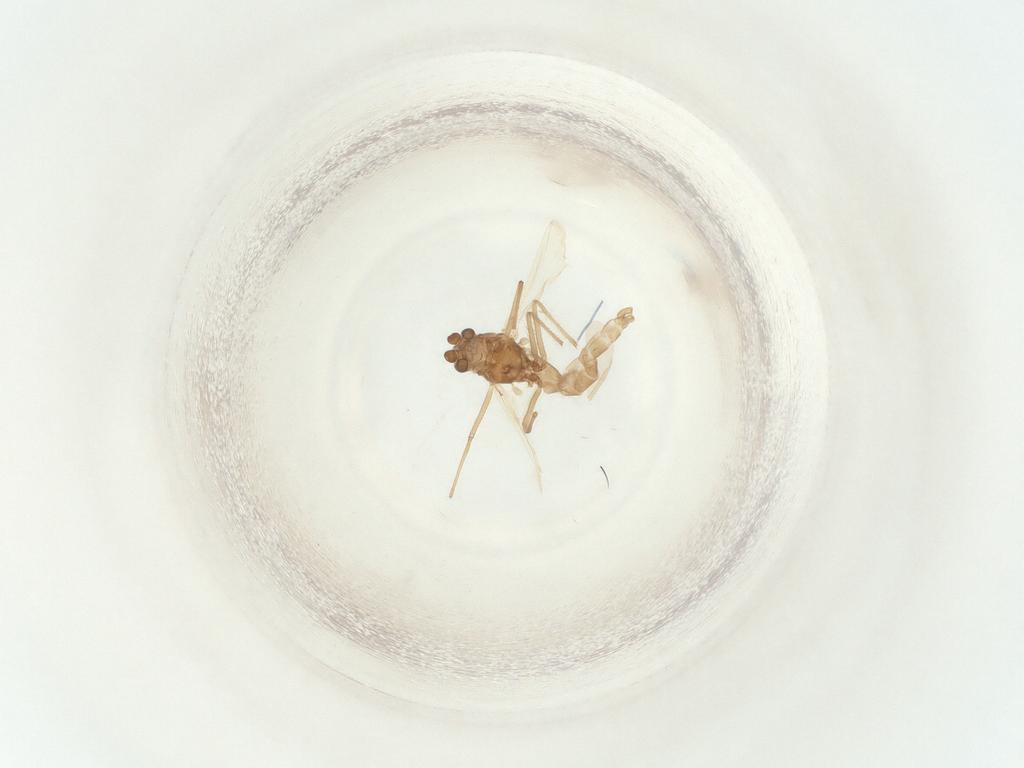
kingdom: Animalia
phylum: Arthropoda
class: Insecta
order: Diptera
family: Chironomidae
